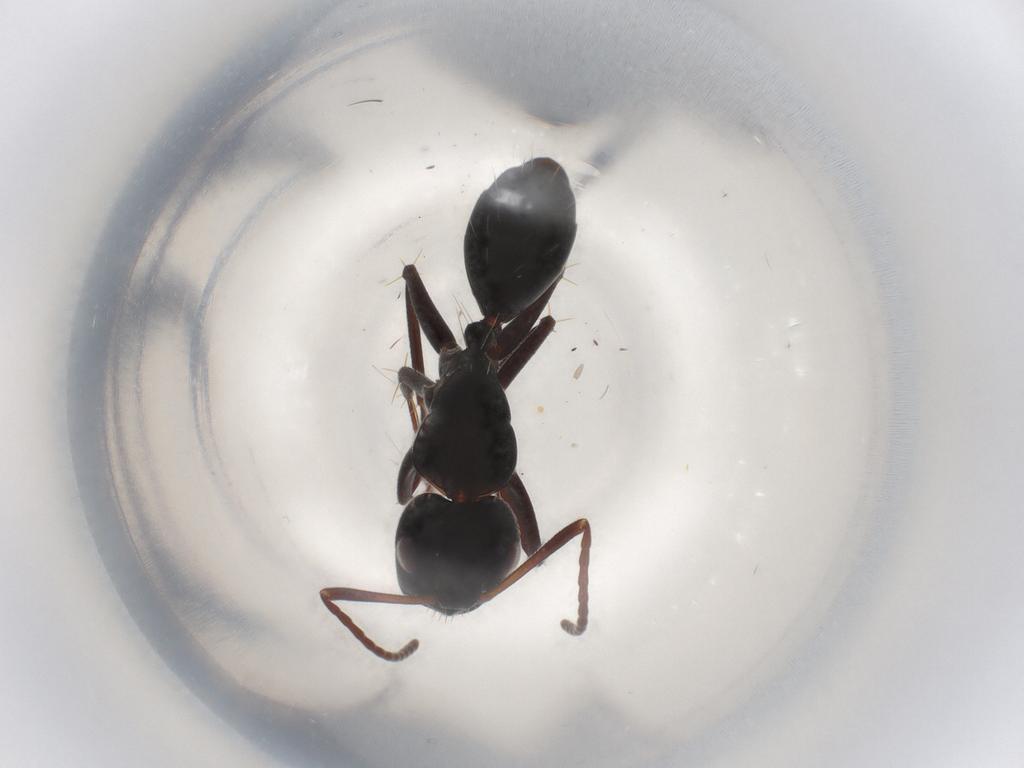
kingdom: Animalia
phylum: Arthropoda
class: Insecta
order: Hymenoptera
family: Formicidae
